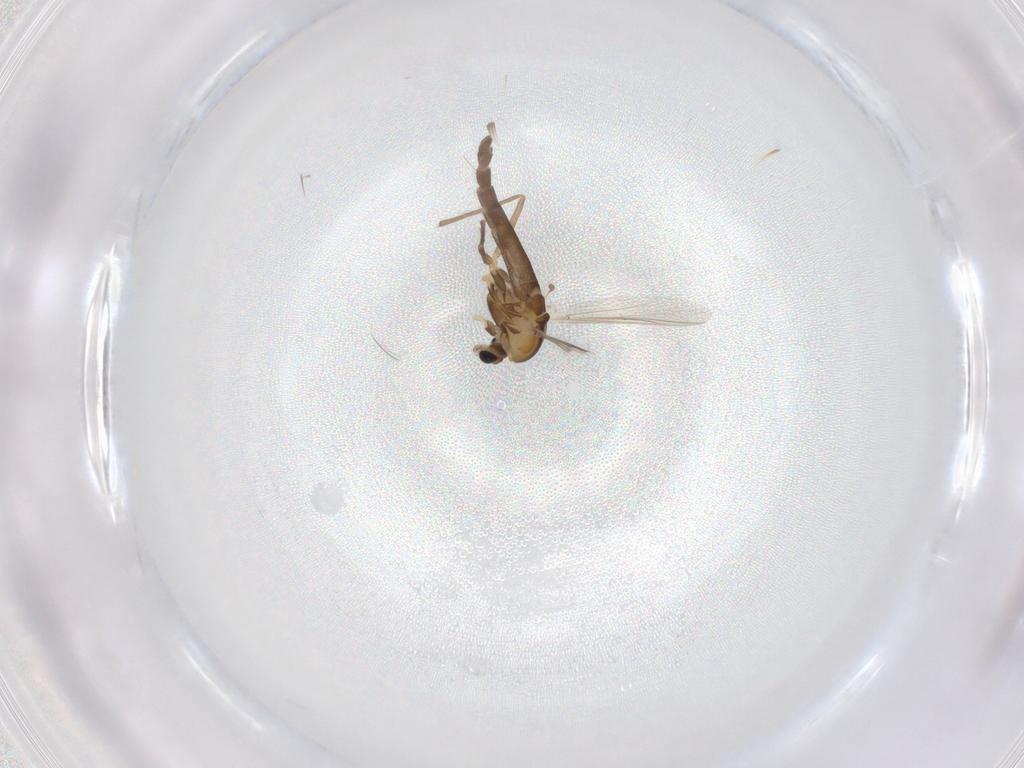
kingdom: Animalia
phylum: Arthropoda
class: Insecta
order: Diptera
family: Chironomidae
